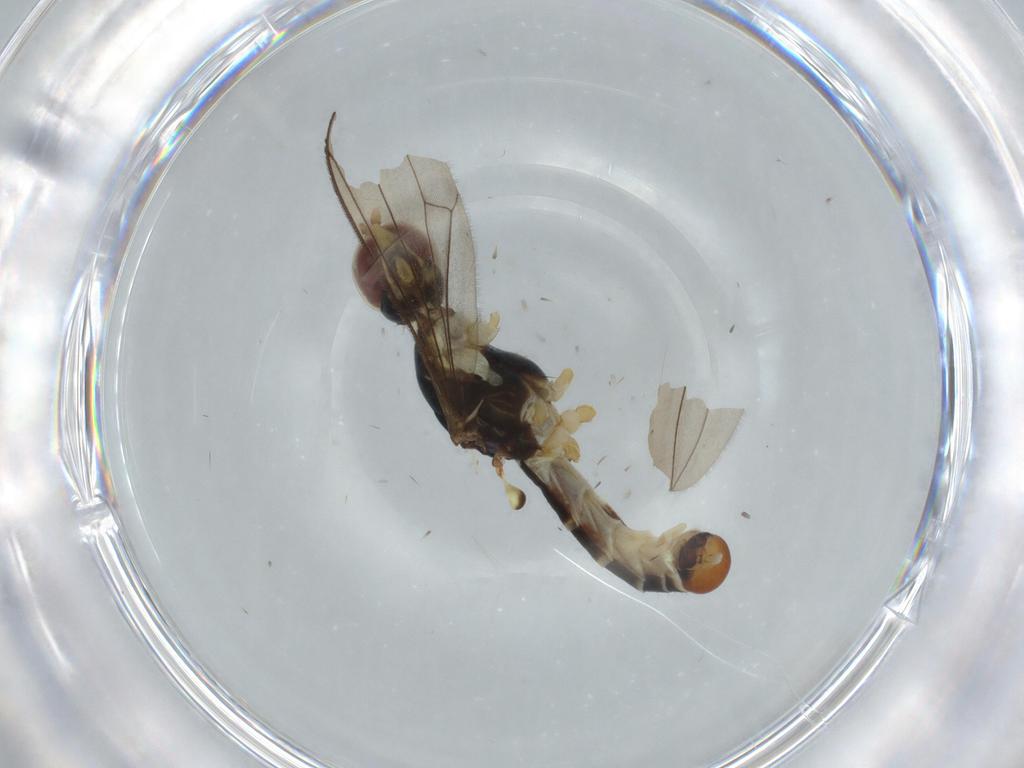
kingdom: Animalia
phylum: Arthropoda
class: Insecta
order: Diptera
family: Micropezidae
